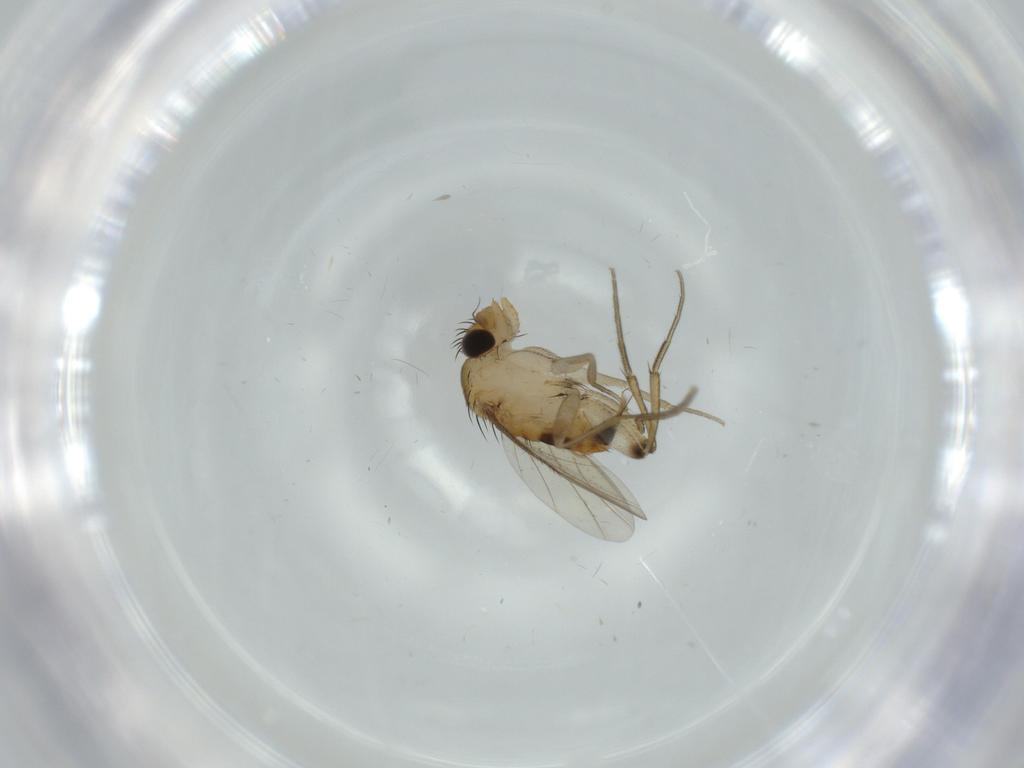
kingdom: Animalia
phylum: Arthropoda
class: Insecta
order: Diptera
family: Phoridae
